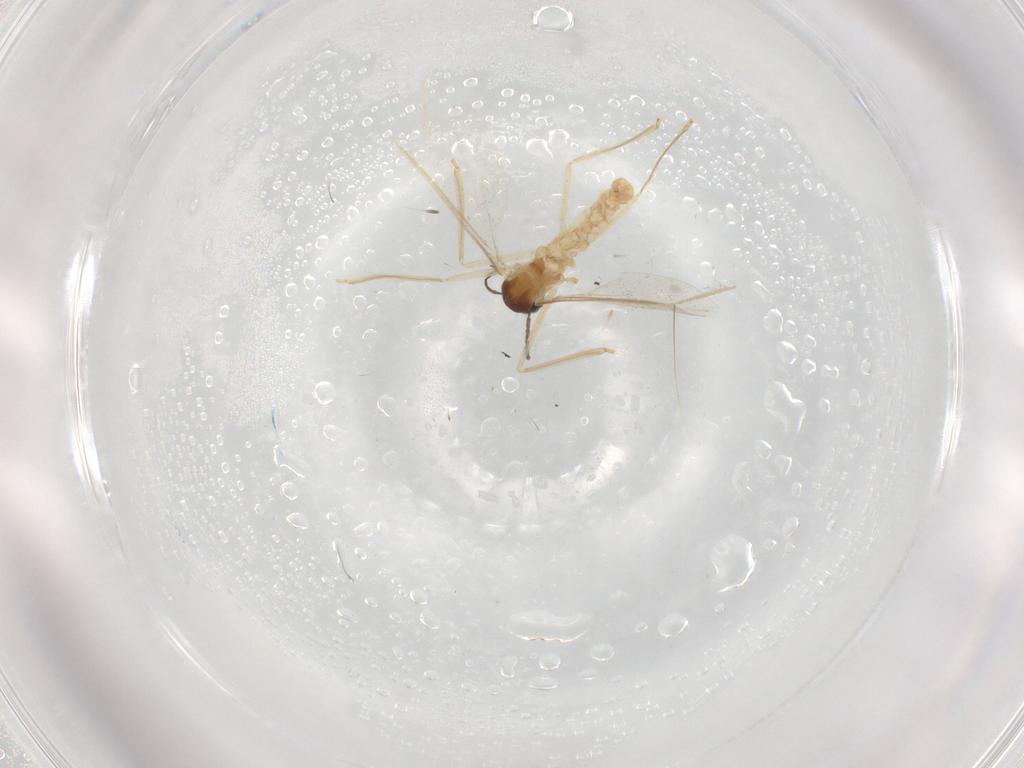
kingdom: Animalia
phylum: Arthropoda
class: Insecta
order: Diptera
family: Cecidomyiidae
